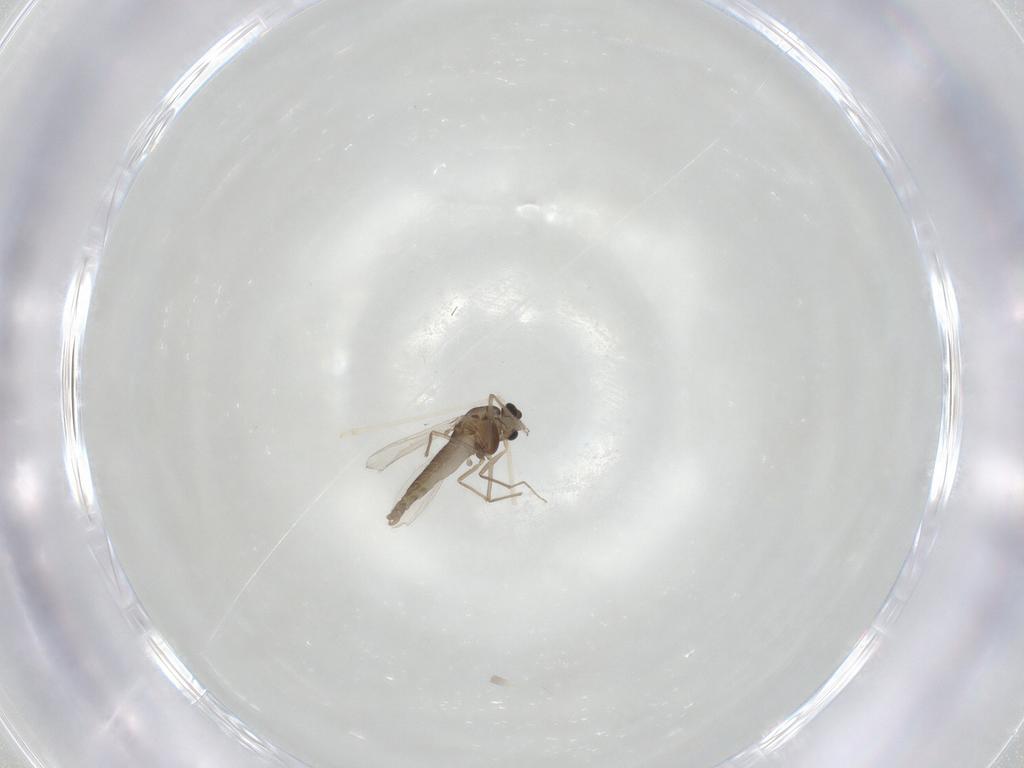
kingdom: Animalia
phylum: Arthropoda
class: Insecta
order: Diptera
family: Chironomidae
